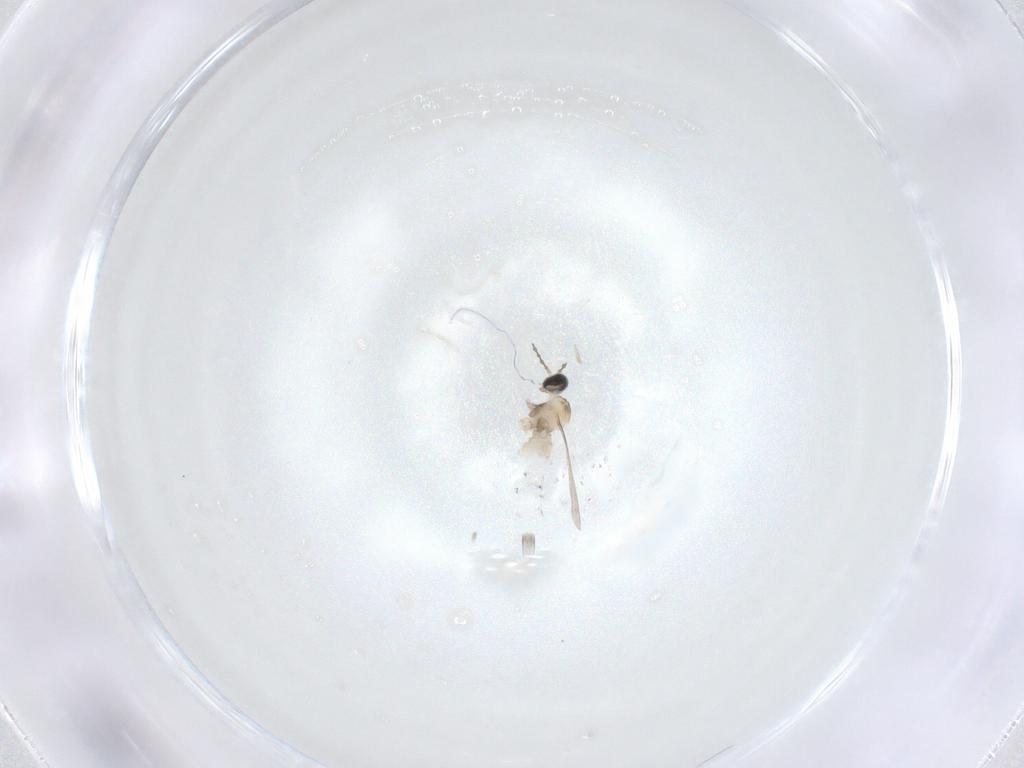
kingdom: Animalia
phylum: Arthropoda
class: Insecta
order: Diptera
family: Cecidomyiidae
